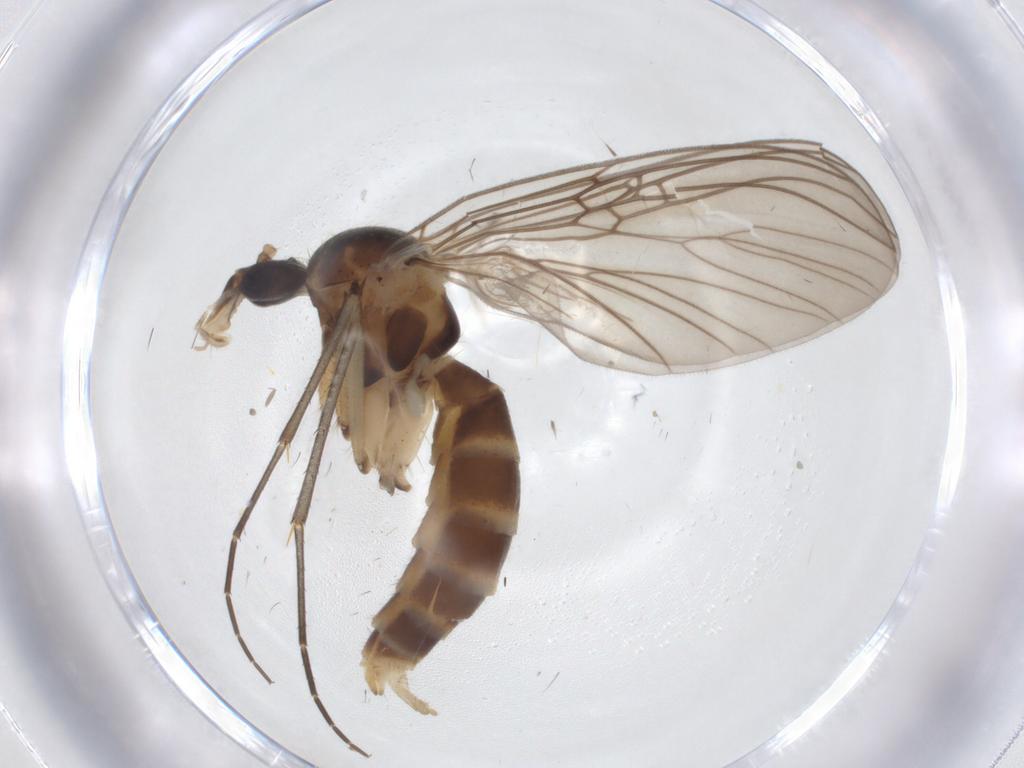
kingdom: Animalia
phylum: Arthropoda
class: Insecta
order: Diptera
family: Mycetophilidae
